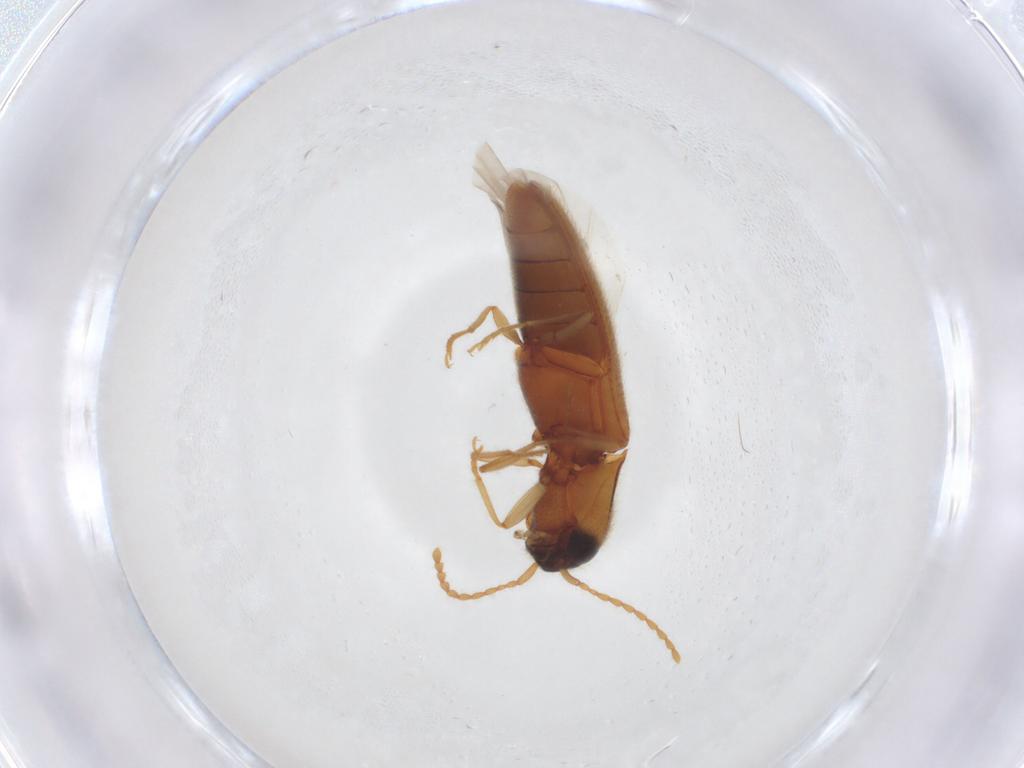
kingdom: Animalia
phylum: Arthropoda
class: Insecta
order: Coleoptera
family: Elateridae
